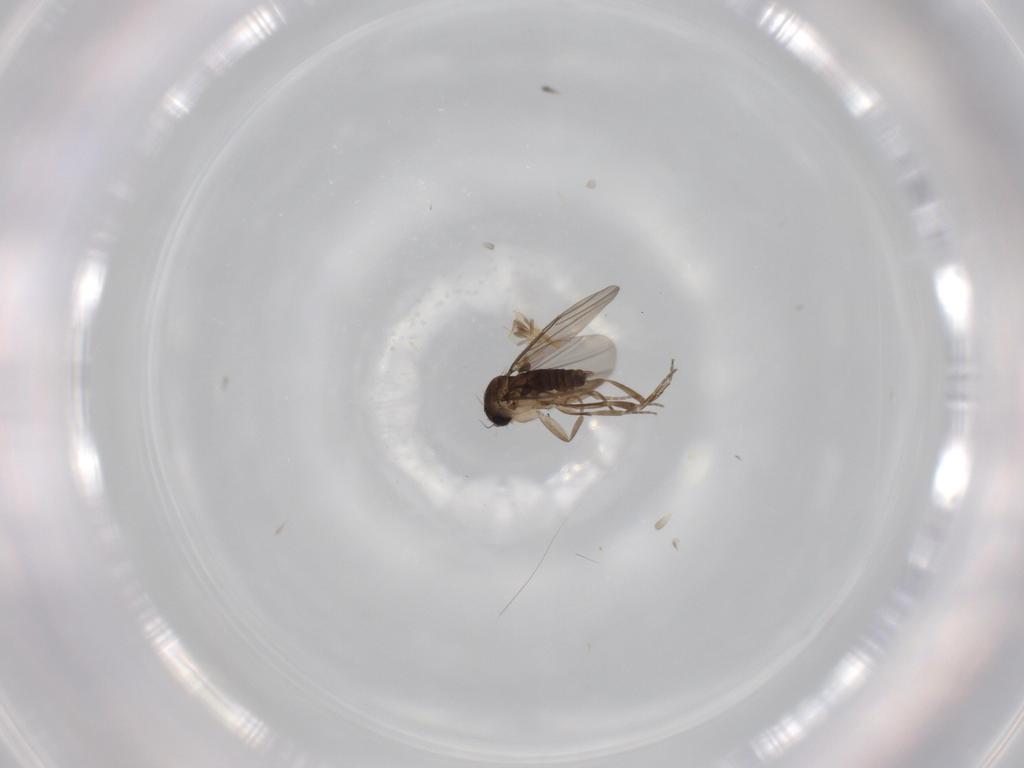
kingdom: Animalia
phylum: Arthropoda
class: Insecta
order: Diptera
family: Phoridae
